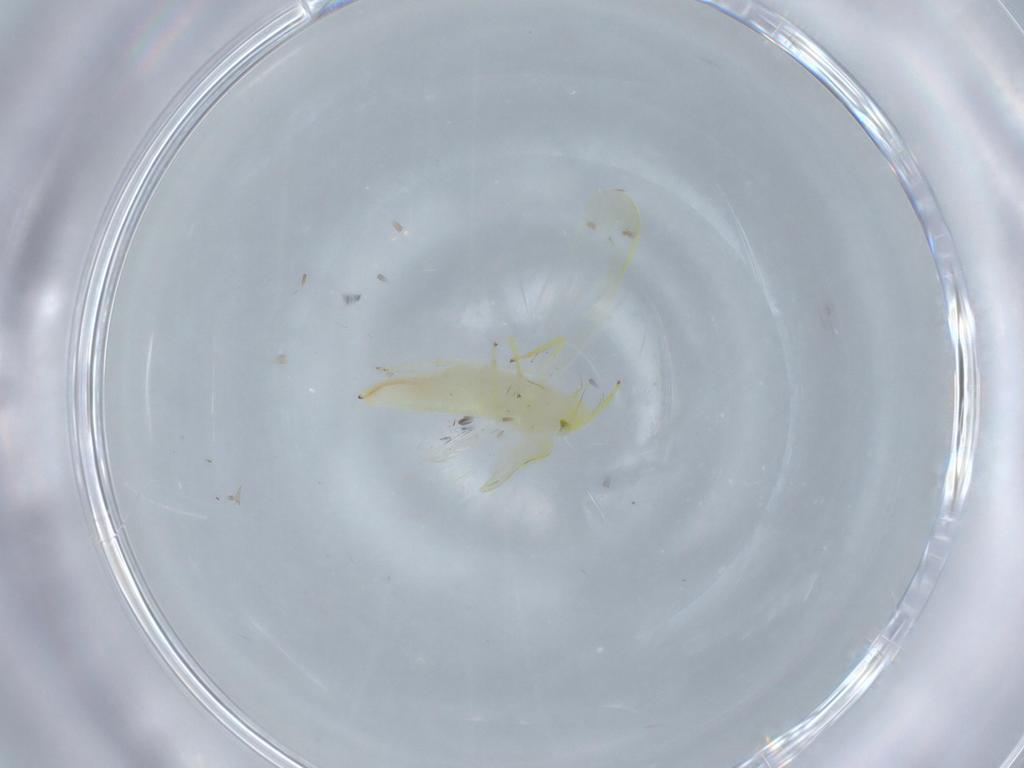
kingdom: Animalia
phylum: Arthropoda
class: Insecta
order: Hemiptera
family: Cicadellidae
